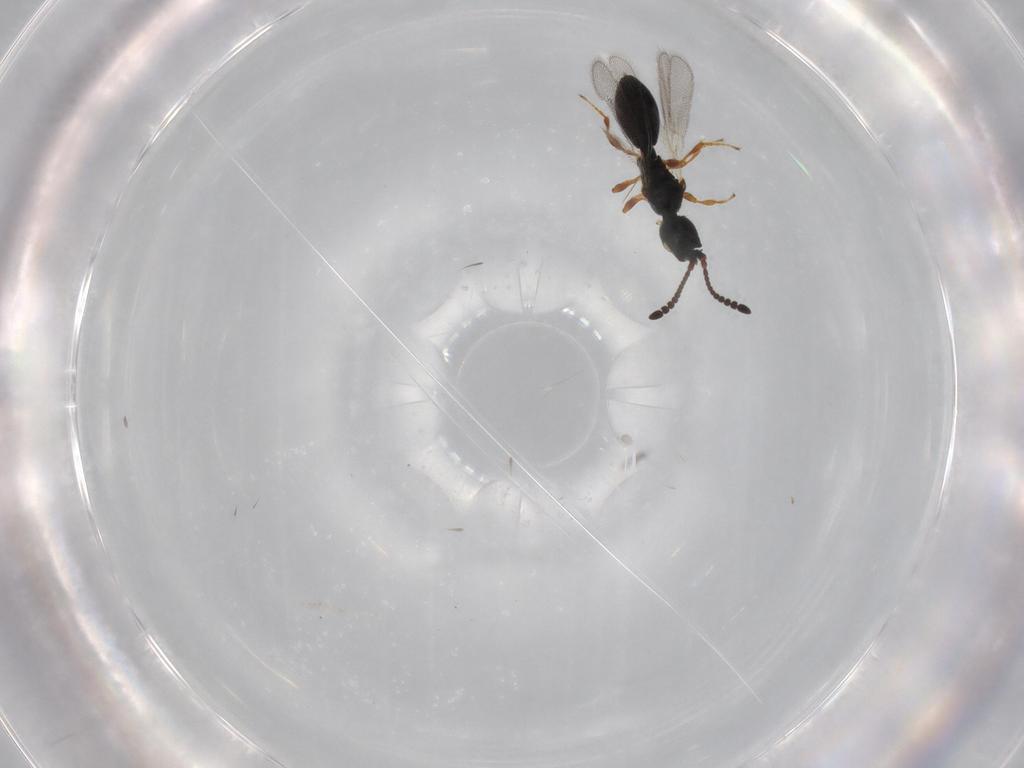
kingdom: Animalia
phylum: Arthropoda
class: Insecta
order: Hymenoptera
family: Diapriidae
